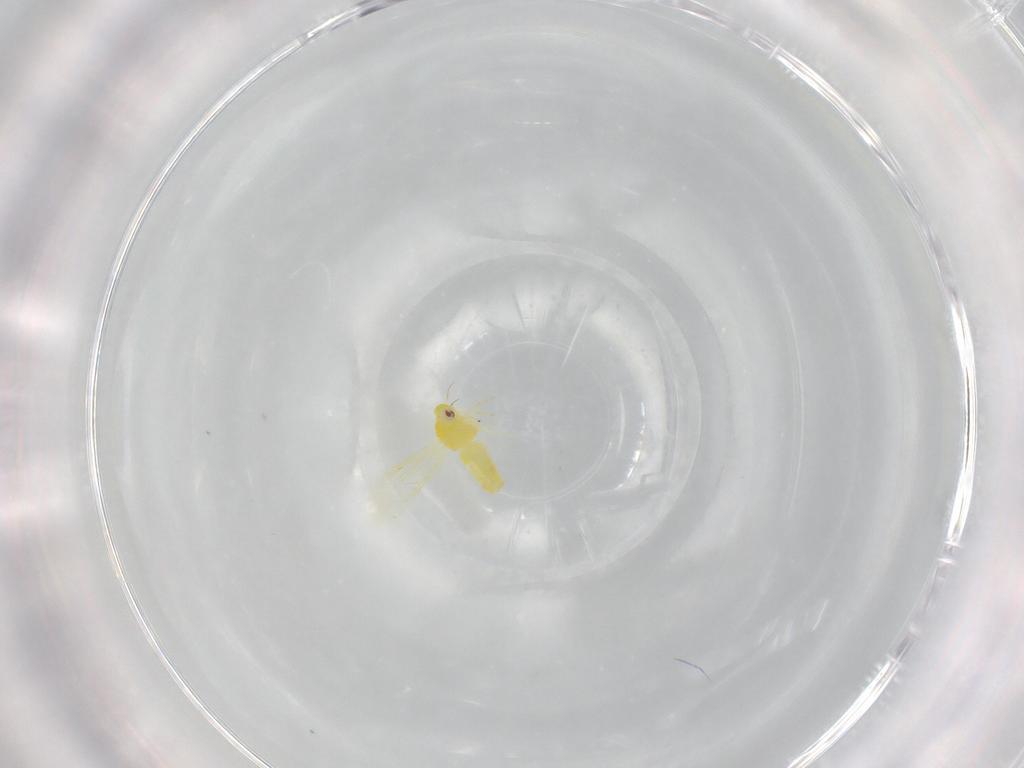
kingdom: Animalia
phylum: Arthropoda
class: Insecta
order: Hemiptera
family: Aleyrodidae
